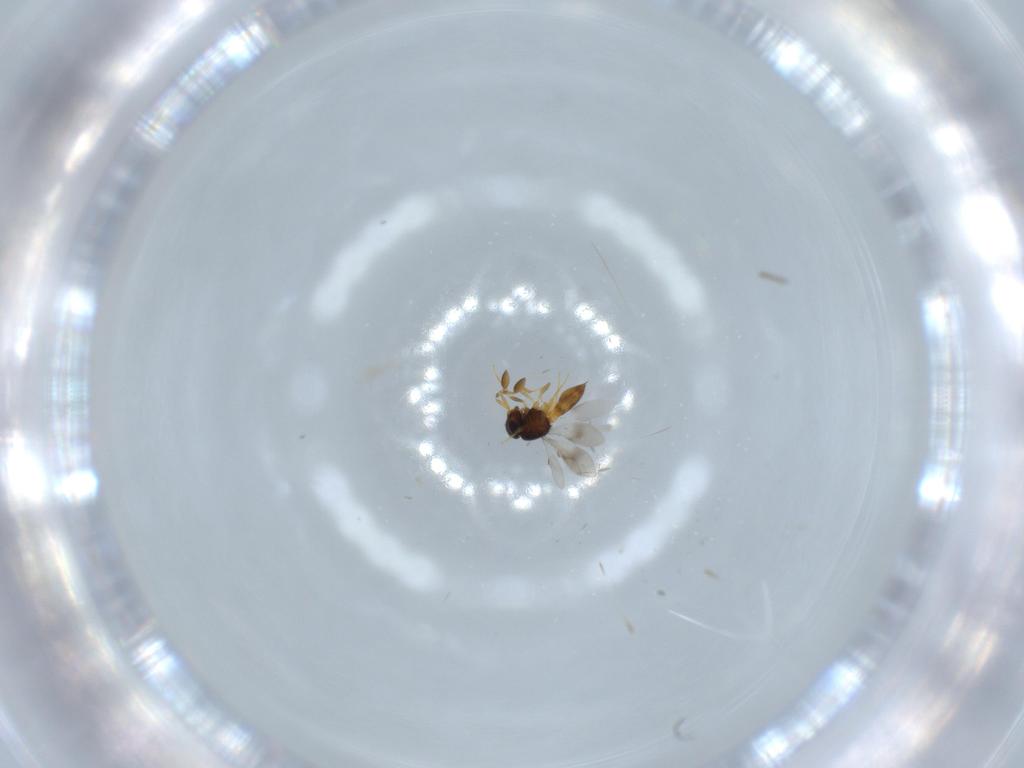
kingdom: Animalia
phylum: Arthropoda
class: Insecta
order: Hymenoptera
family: Scelionidae
